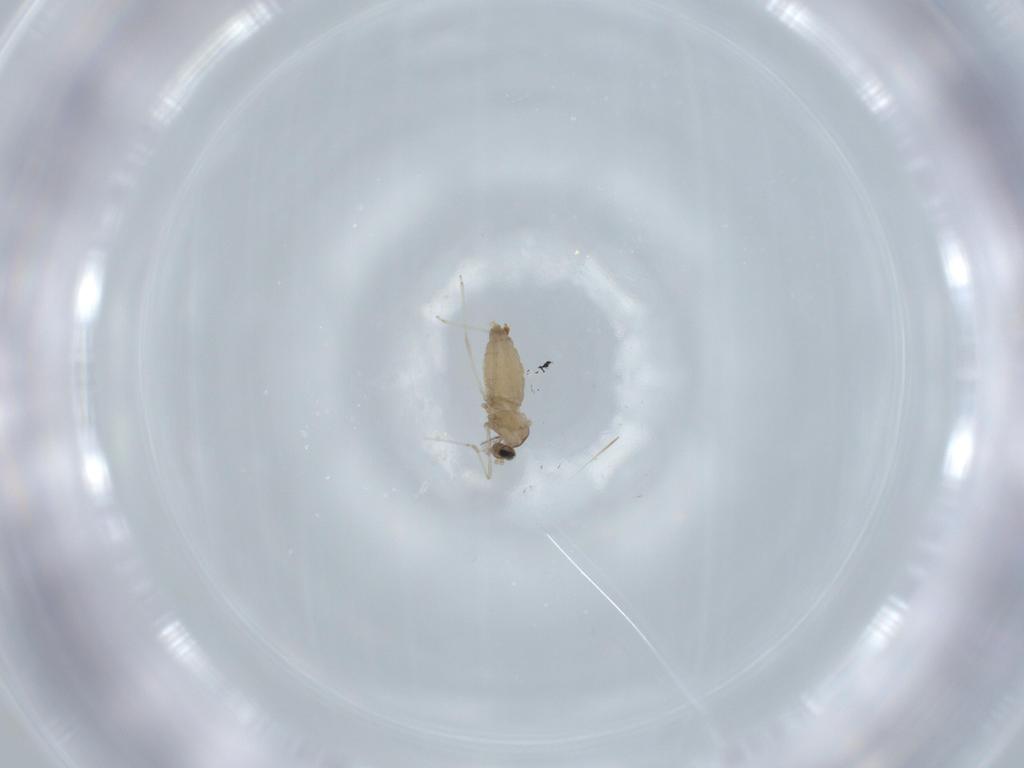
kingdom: Animalia
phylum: Arthropoda
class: Insecta
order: Diptera
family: Cecidomyiidae
